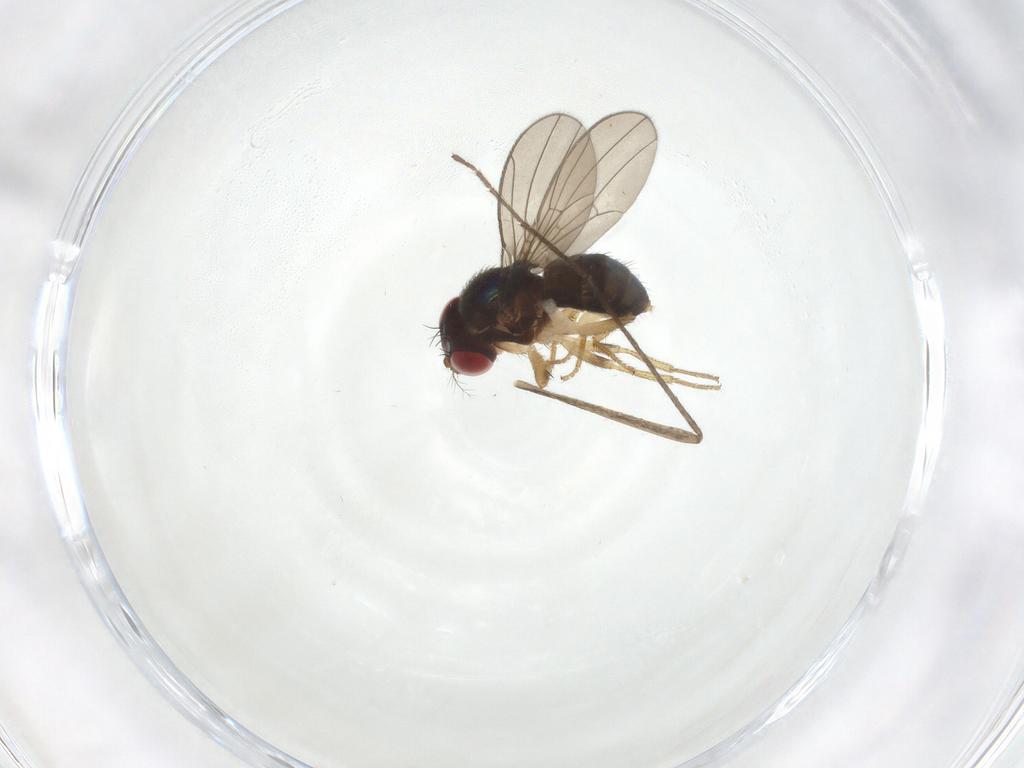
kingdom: Animalia
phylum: Arthropoda
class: Insecta
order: Diptera
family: Drosophilidae
